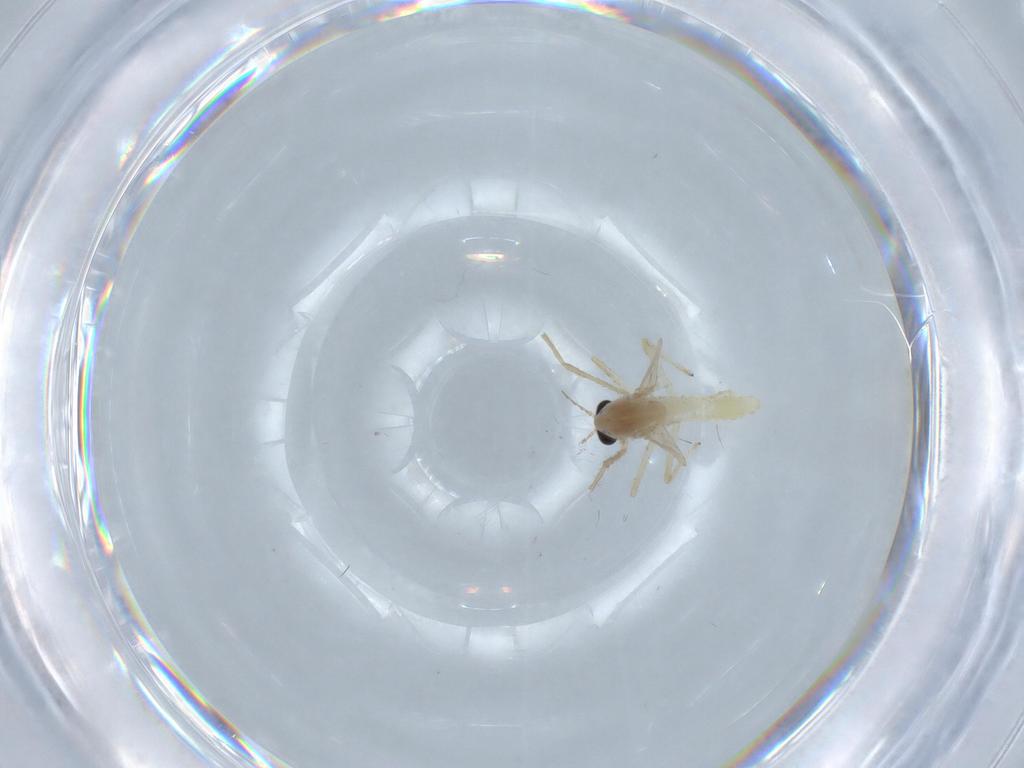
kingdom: Animalia
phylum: Arthropoda
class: Insecta
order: Diptera
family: Chironomidae
